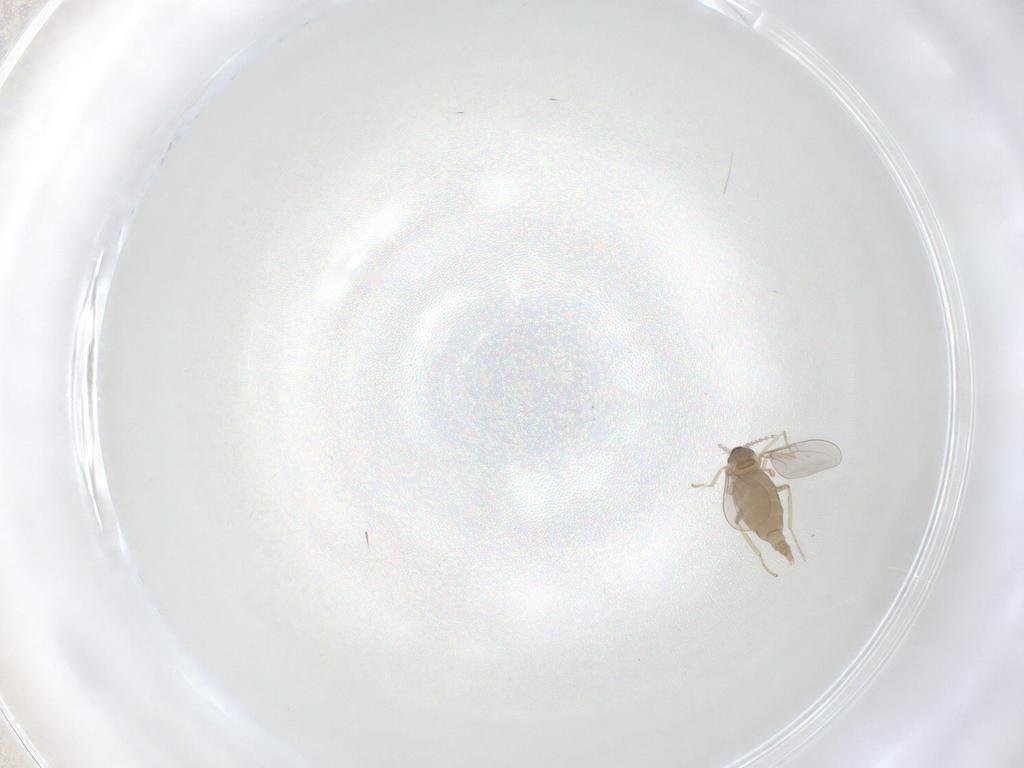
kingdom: Animalia
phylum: Arthropoda
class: Insecta
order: Diptera
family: Cecidomyiidae
